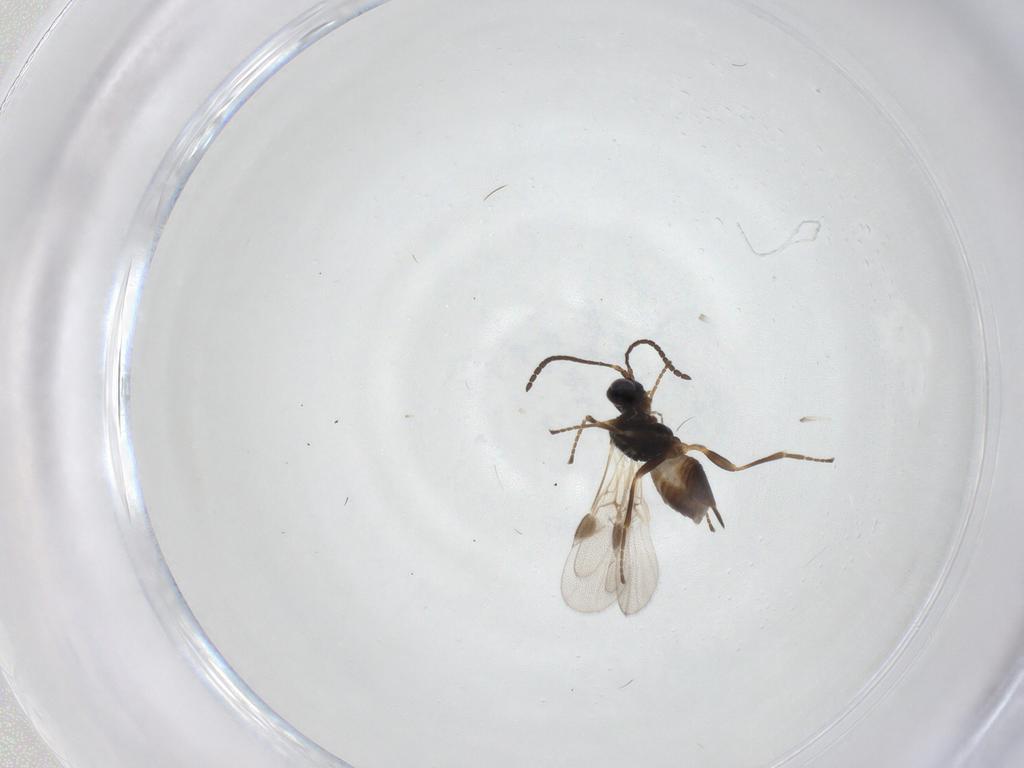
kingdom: Animalia
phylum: Arthropoda
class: Insecta
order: Hymenoptera
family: Braconidae
